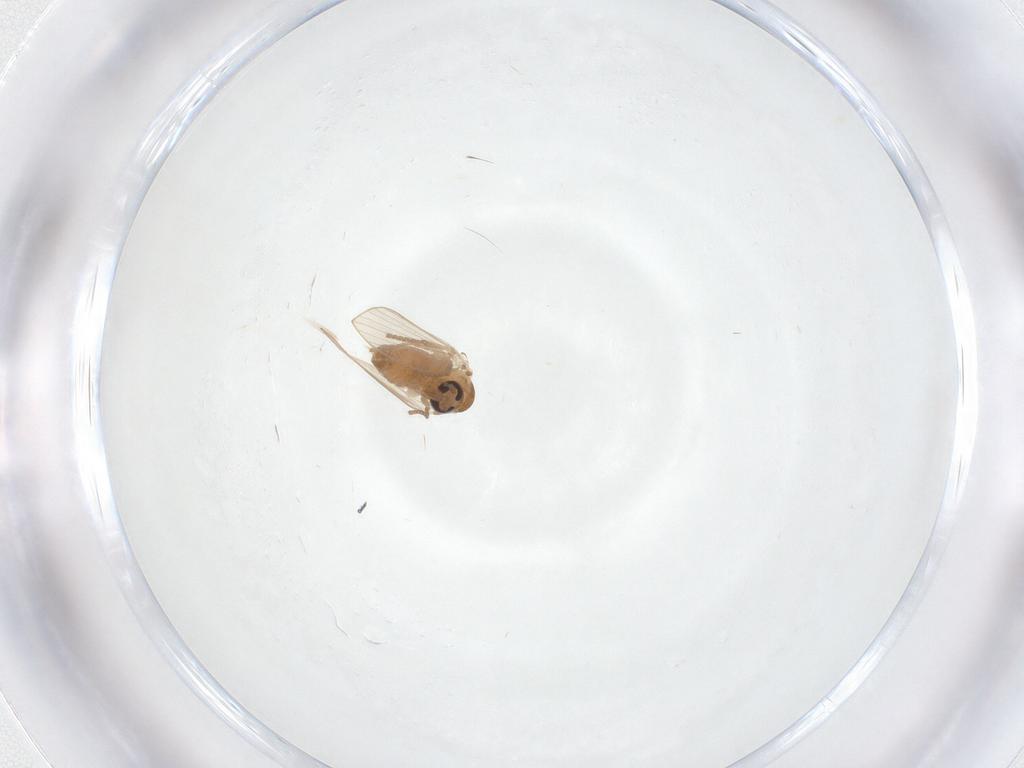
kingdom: Animalia
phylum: Arthropoda
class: Insecta
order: Diptera
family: Psychodidae
